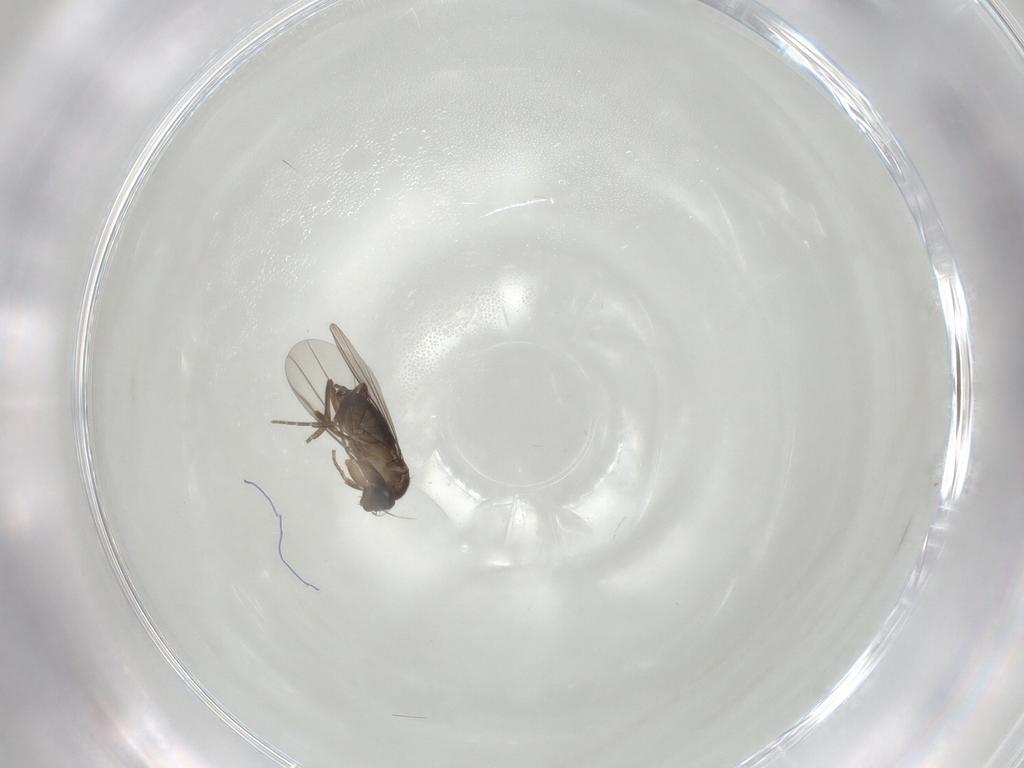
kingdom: Animalia
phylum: Arthropoda
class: Insecta
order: Diptera
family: Phoridae
